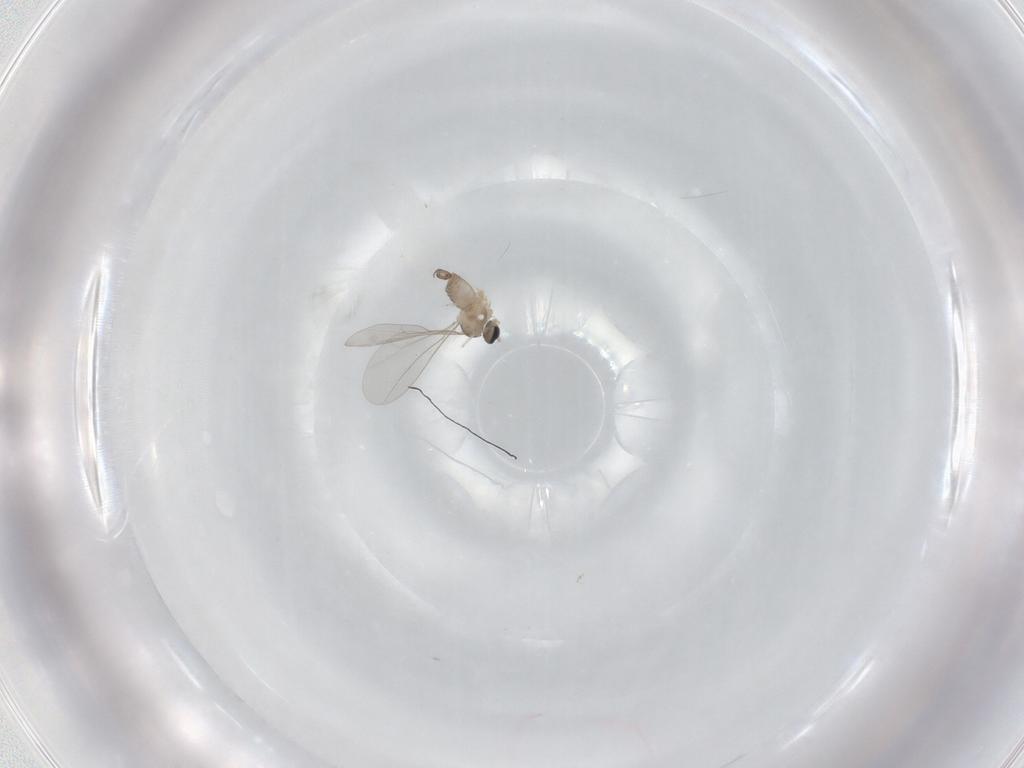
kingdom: Animalia
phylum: Arthropoda
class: Insecta
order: Diptera
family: Cecidomyiidae
